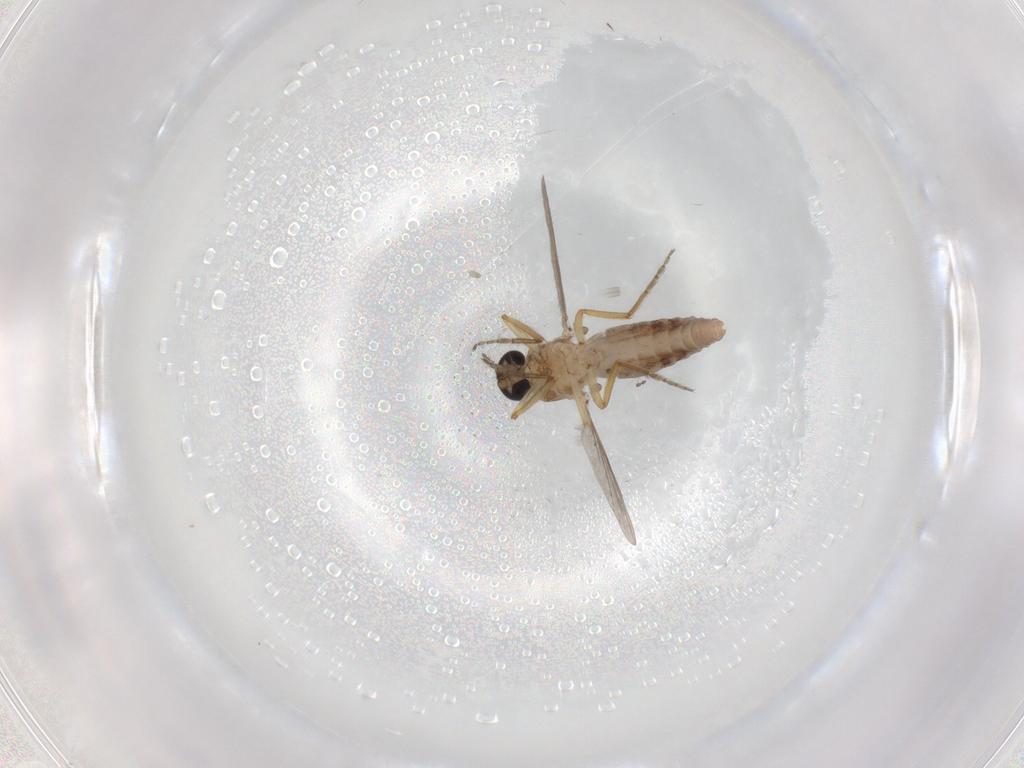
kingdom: Animalia
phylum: Arthropoda
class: Insecta
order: Diptera
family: Ceratopogonidae
